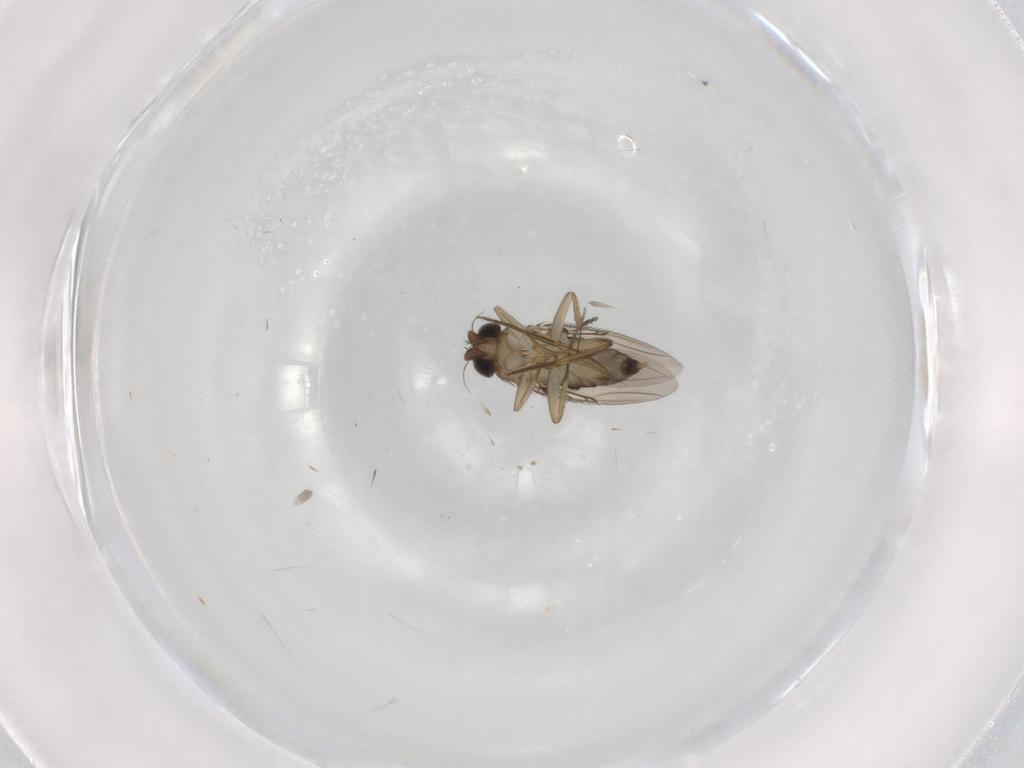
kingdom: Animalia
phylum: Arthropoda
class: Insecta
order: Diptera
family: Phoridae
